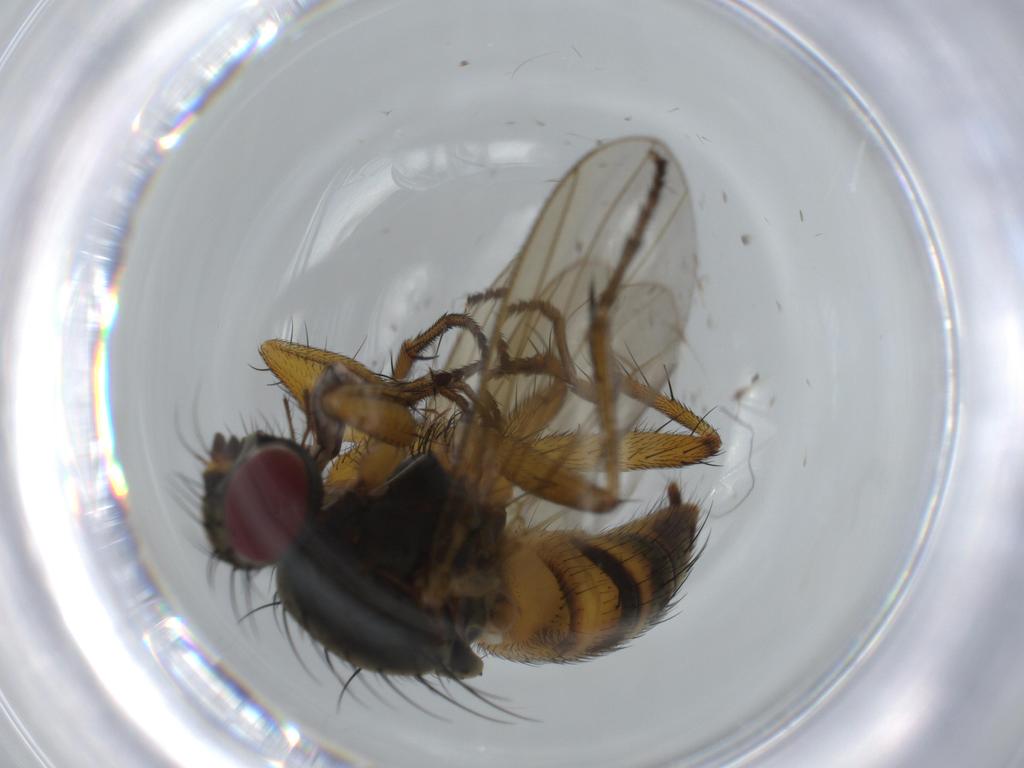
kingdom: Animalia
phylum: Arthropoda
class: Insecta
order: Diptera
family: Muscidae
